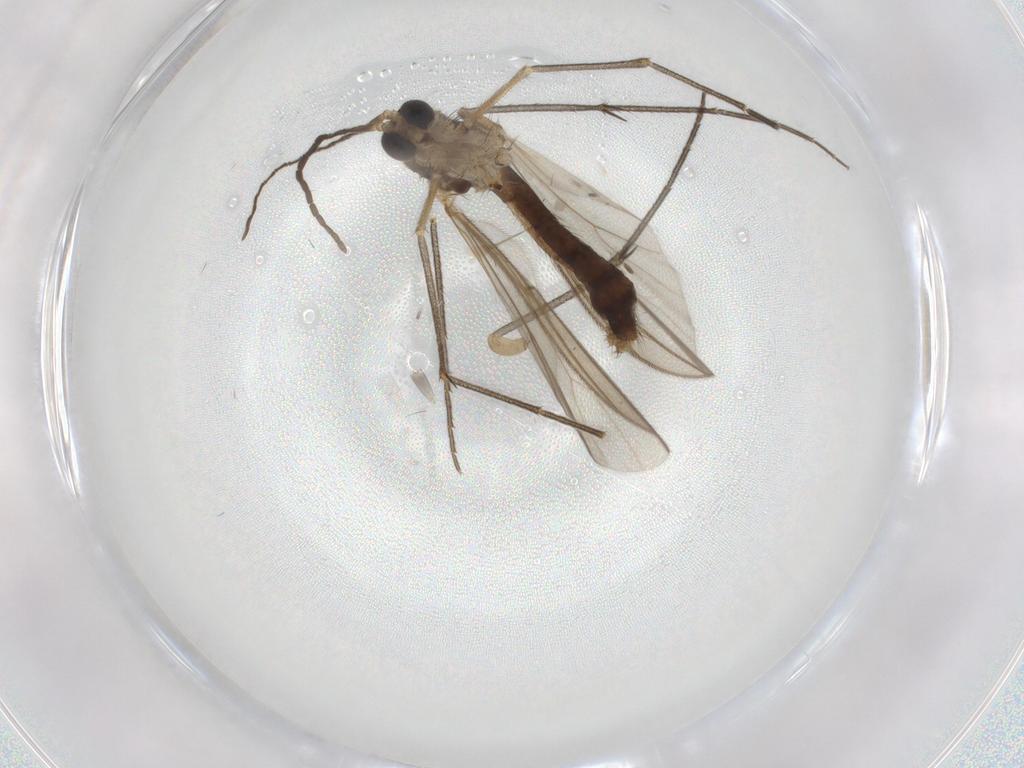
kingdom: Animalia
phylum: Arthropoda
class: Insecta
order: Diptera
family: Cecidomyiidae
